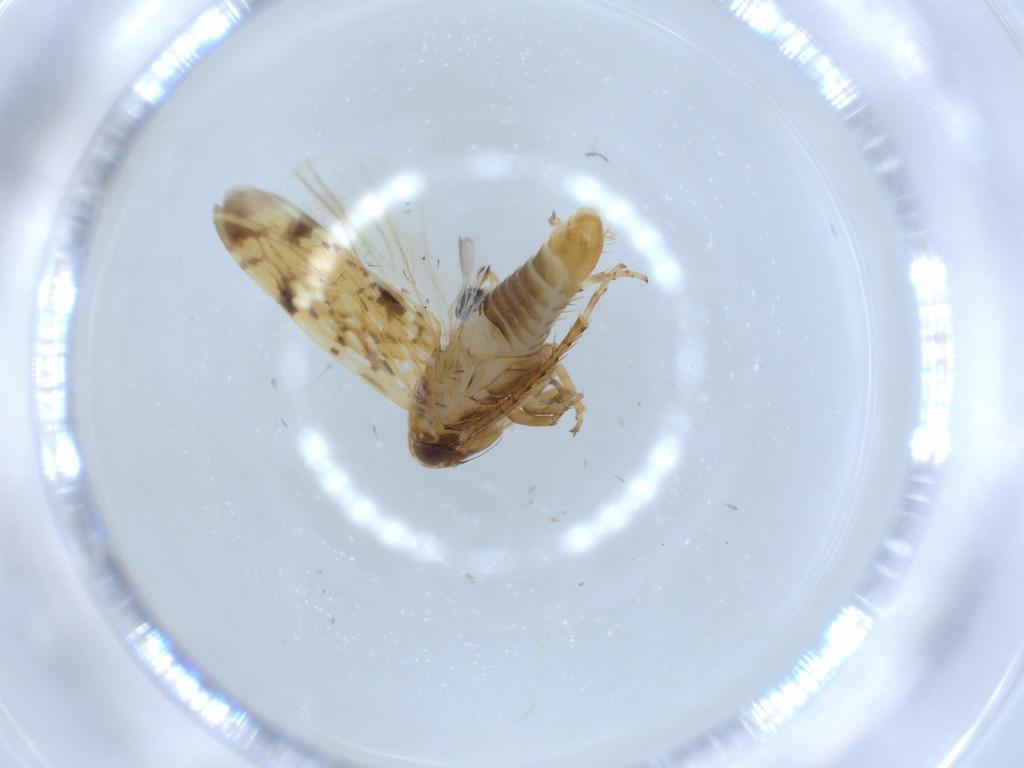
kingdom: Animalia
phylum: Arthropoda
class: Insecta
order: Hemiptera
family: Cicadellidae
